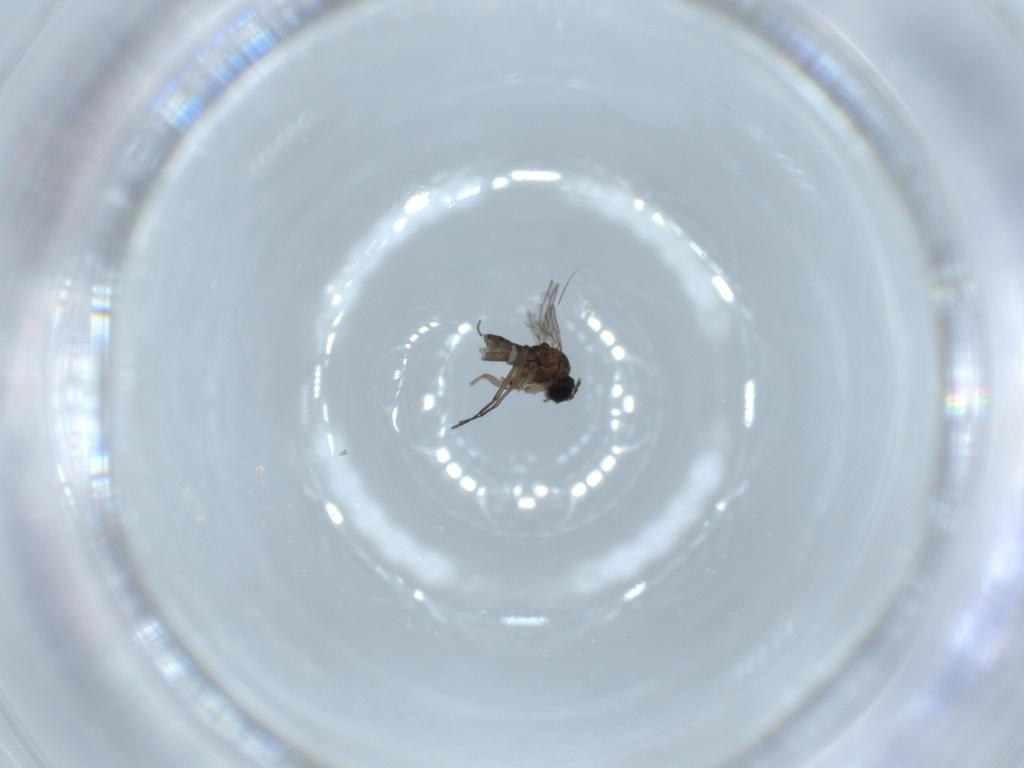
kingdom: Animalia
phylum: Arthropoda
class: Insecta
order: Diptera
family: Sciaridae
